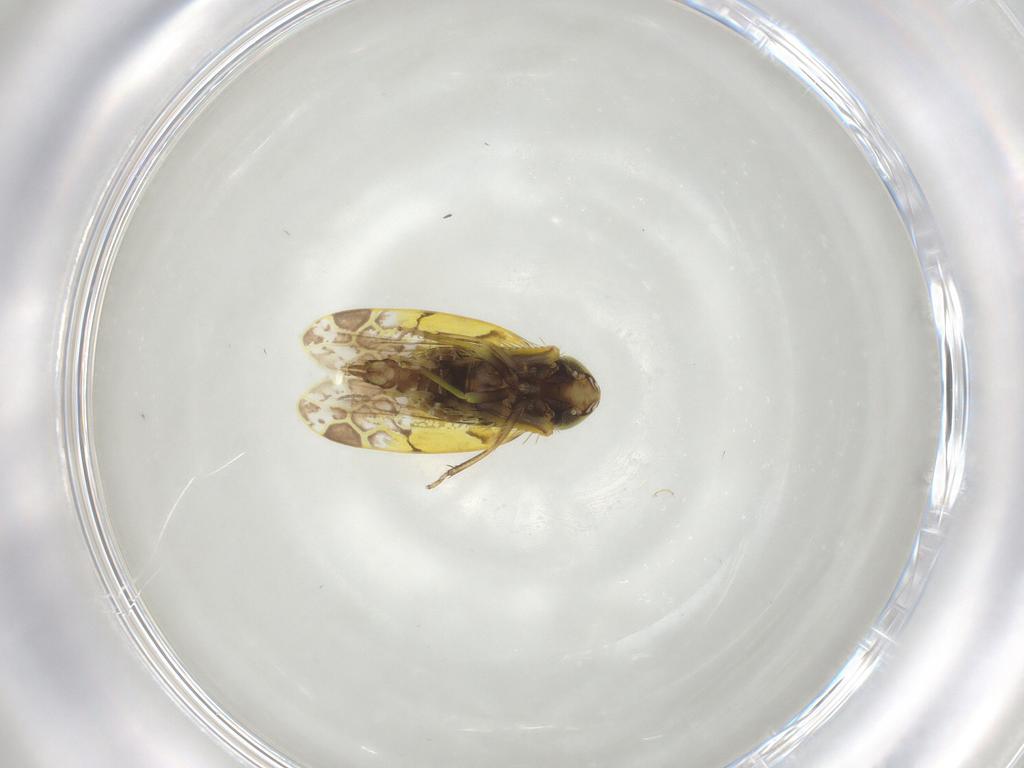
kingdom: Animalia
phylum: Arthropoda
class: Insecta
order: Hemiptera
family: Cicadellidae
